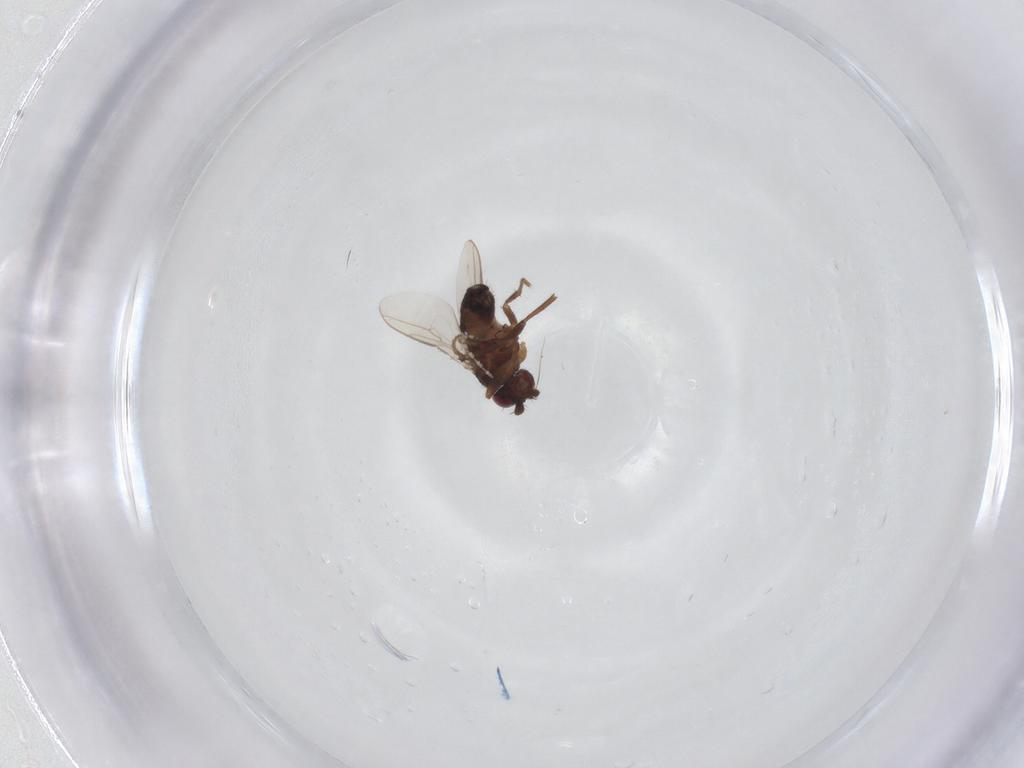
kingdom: Animalia
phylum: Arthropoda
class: Insecta
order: Diptera
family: Sphaeroceridae
